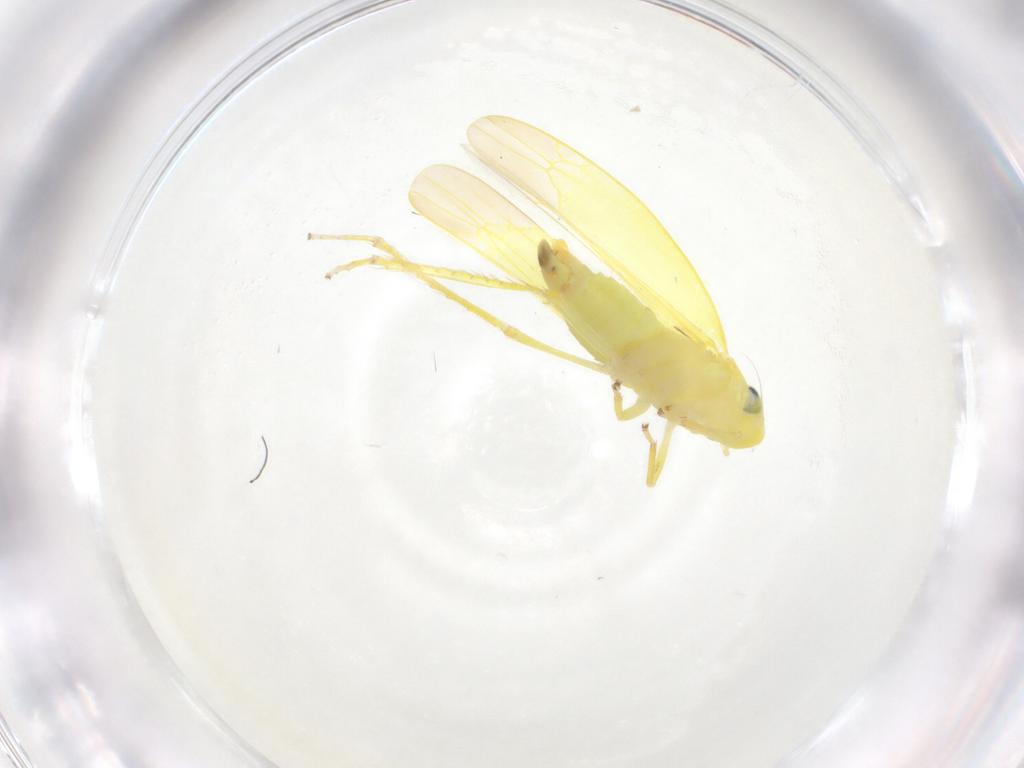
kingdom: Animalia
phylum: Arthropoda
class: Insecta
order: Hemiptera
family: Cicadellidae
